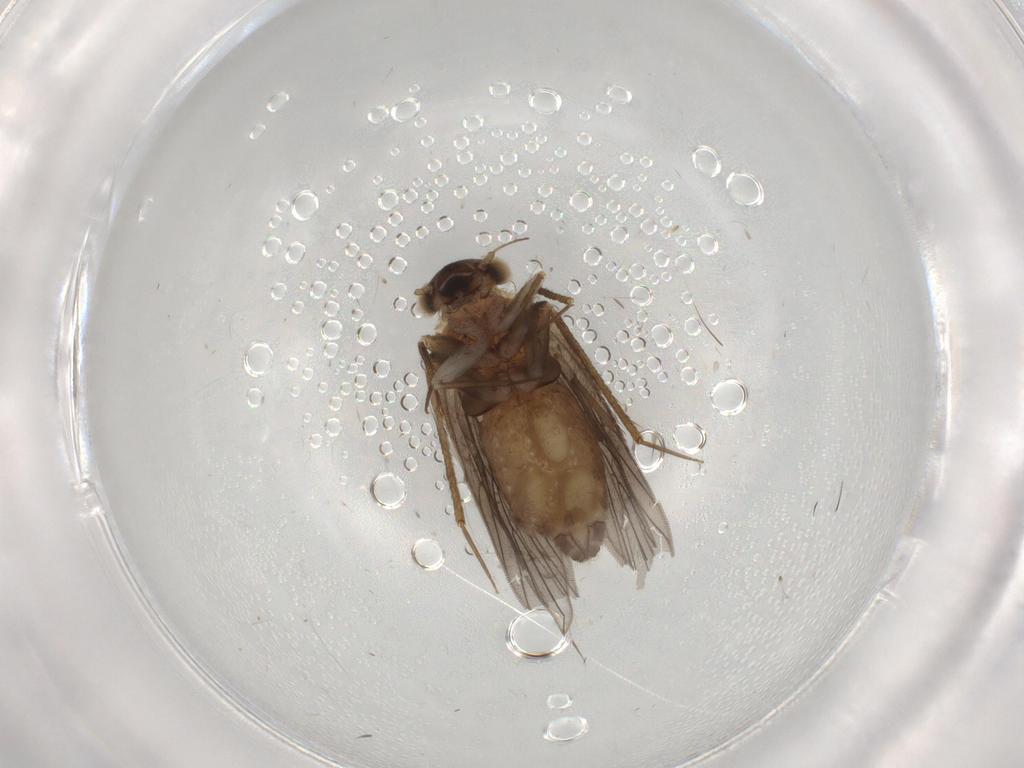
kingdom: Animalia
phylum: Arthropoda
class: Insecta
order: Psocodea
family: Lepidopsocidae
